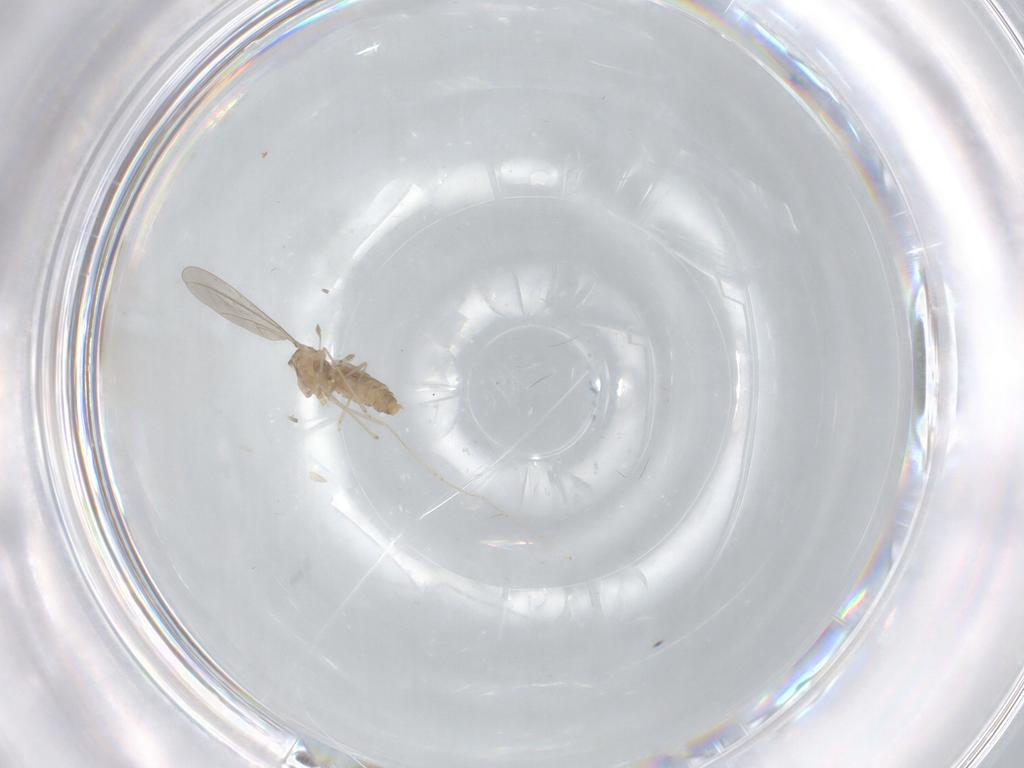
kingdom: Animalia
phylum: Arthropoda
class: Insecta
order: Diptera
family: Cecidomyiidae
